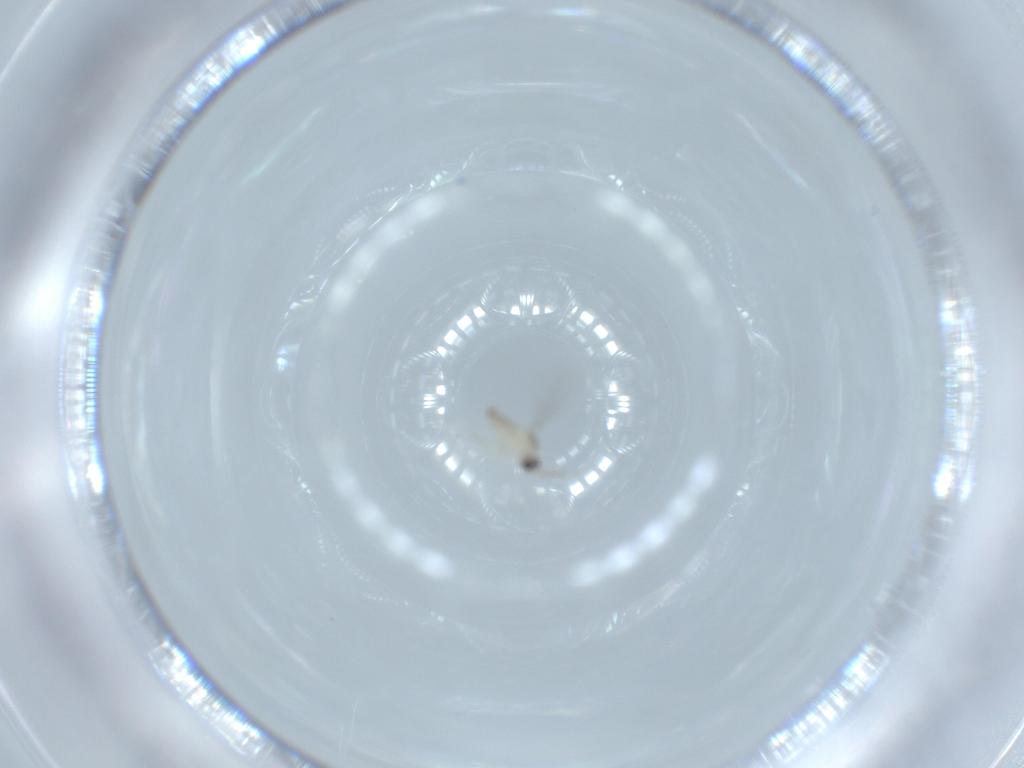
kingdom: Animalia
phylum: Arthropoda
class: Insecta
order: Diptera
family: Cecidomyiidae
